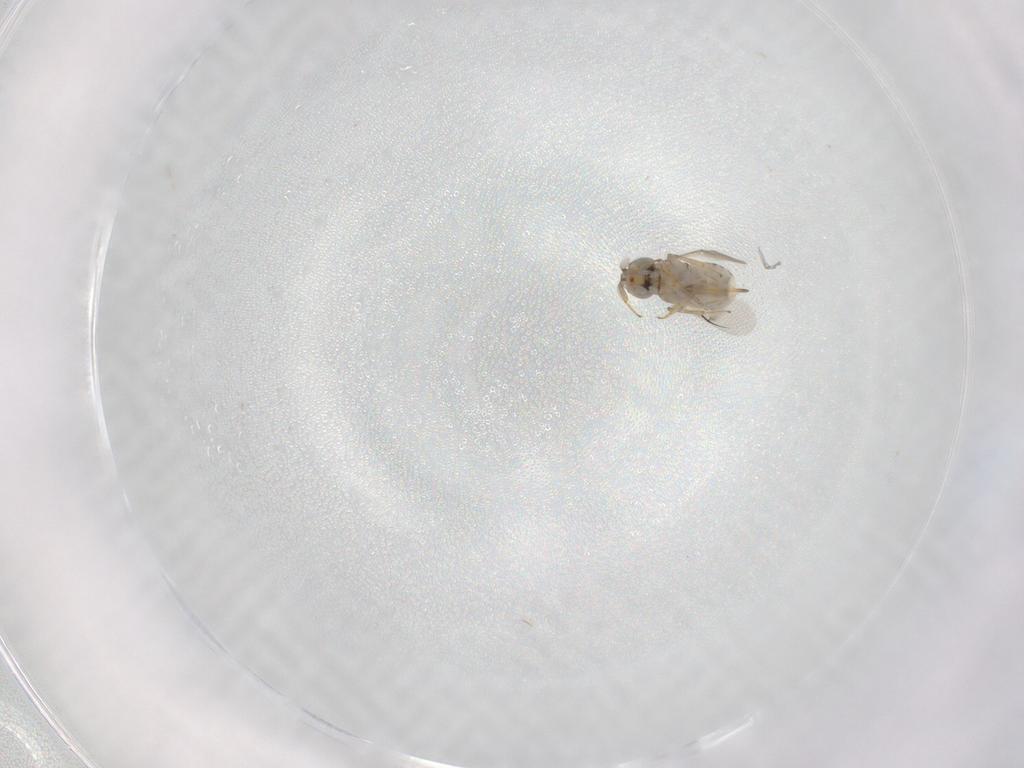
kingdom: Animalia
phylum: Arthropoda
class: Insecta
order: Hymenoptera
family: Encyrtidae
